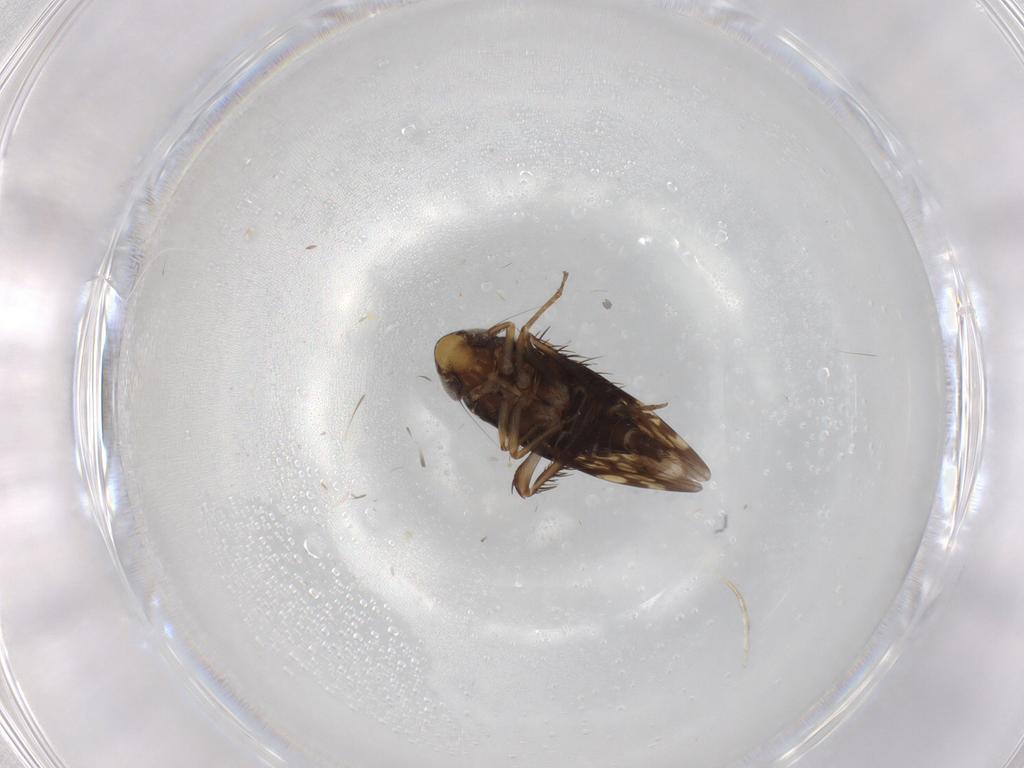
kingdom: Animalia
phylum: Arthropoda
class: Insecta
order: Hemiptera
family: Cicadellidae
